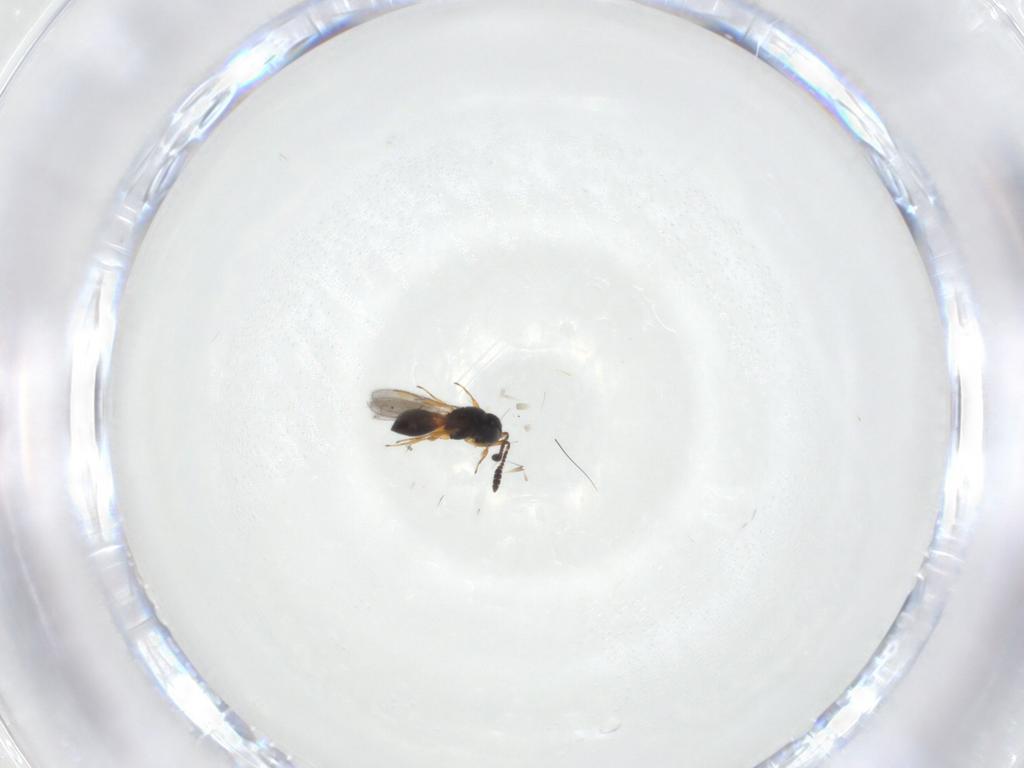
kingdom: Animalia
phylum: Arthropoda
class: Insecta
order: Hymenoptera
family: Scelionidae
